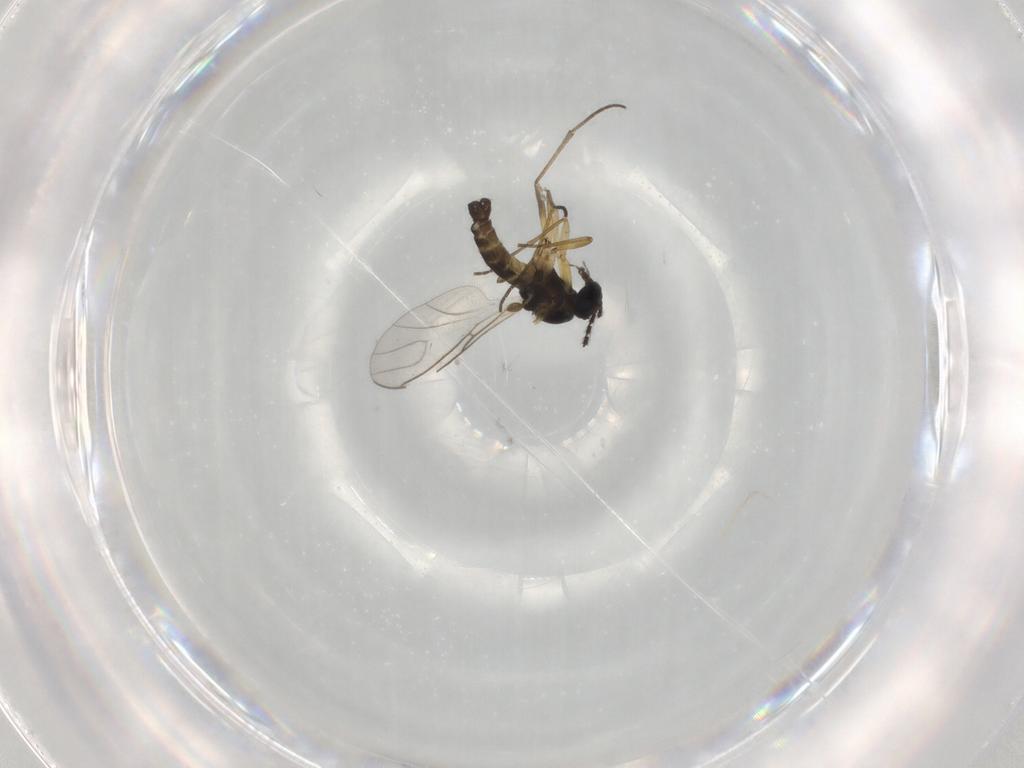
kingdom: Animalia
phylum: Arthropoda
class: Insecta
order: Diptera
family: Sciaridae
